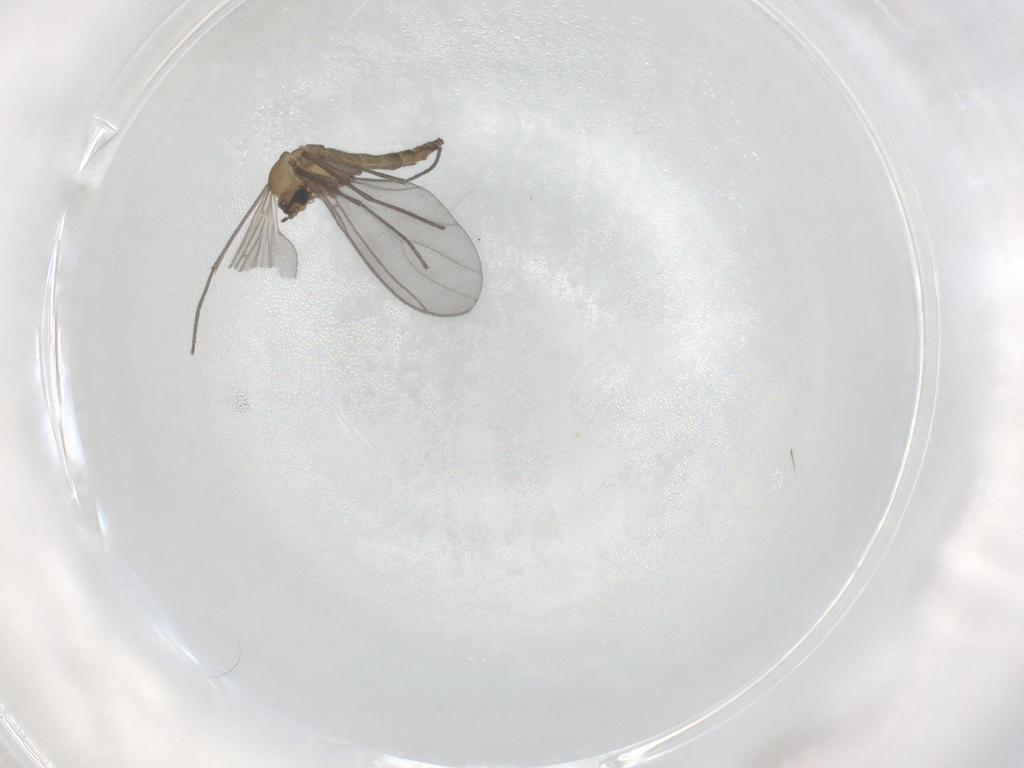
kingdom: Animalia
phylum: Arthropoda
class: Insecta
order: Diptera
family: Sciaridae
